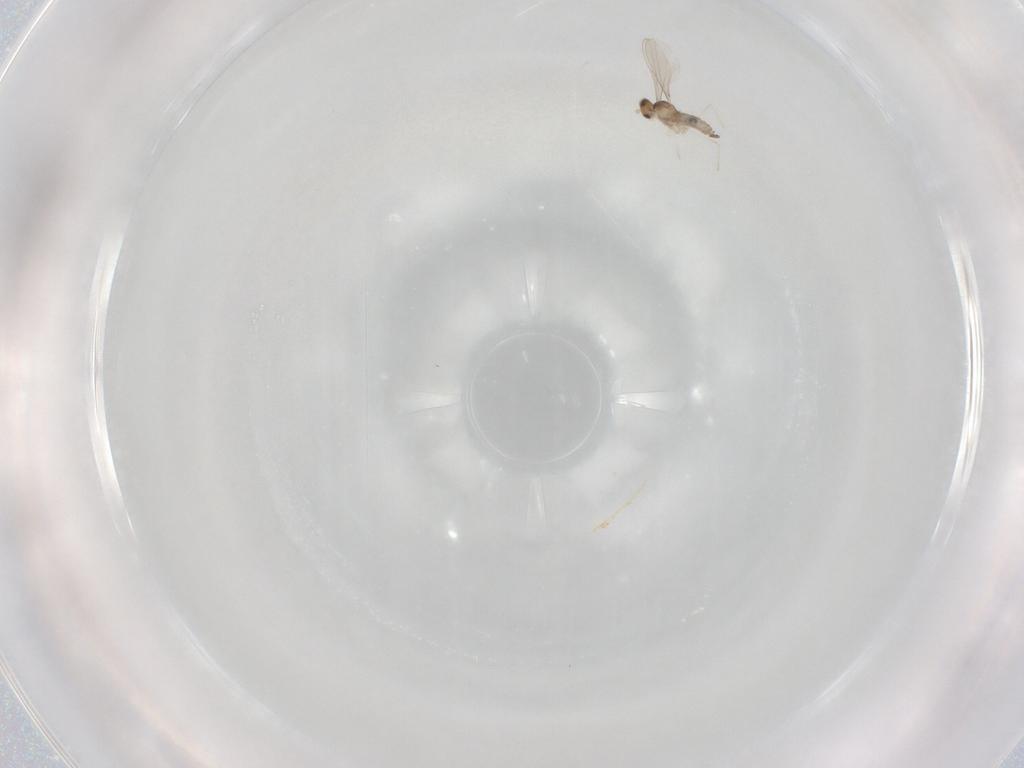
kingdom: Animalia
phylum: Arthropoda
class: Insecta
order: Diptera
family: Cecidomyiidae
